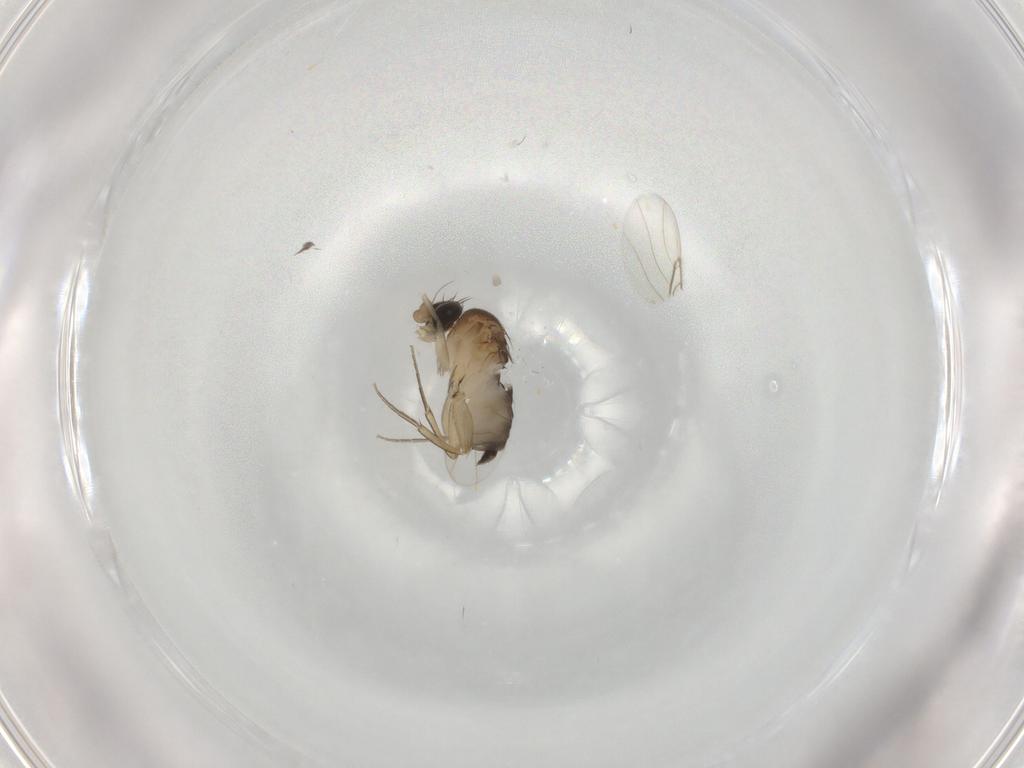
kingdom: Animalia
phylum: Arthropoda
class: Insecta
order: Diptera
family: Phoridae
